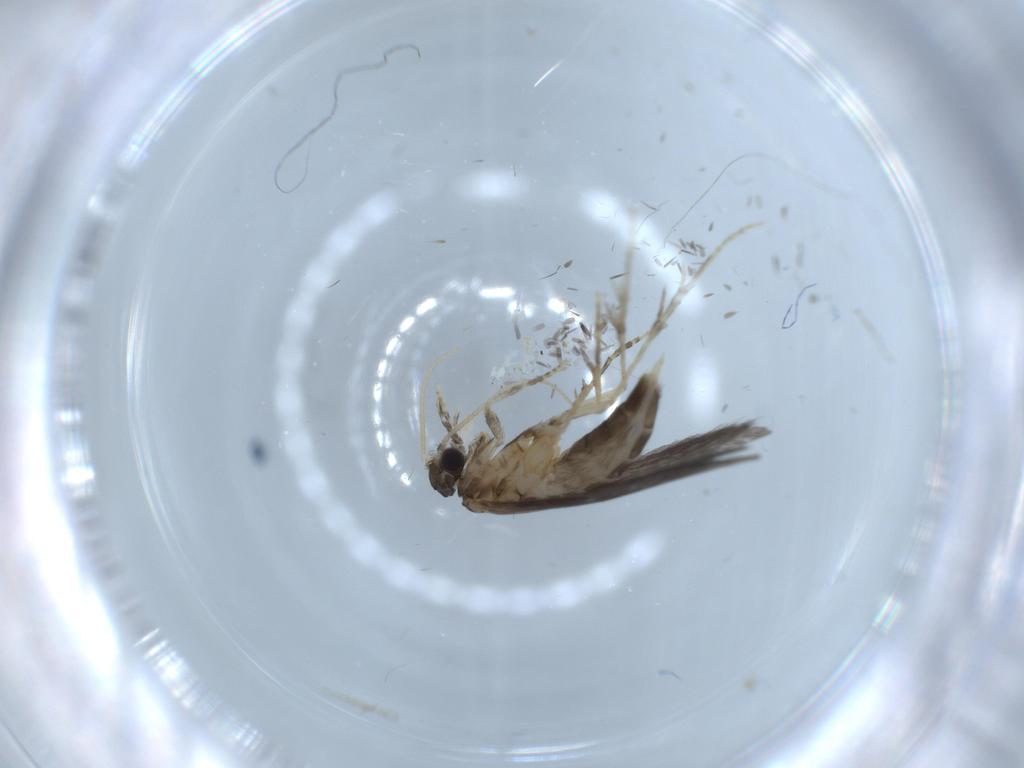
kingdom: Animalia
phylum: Arthropoda
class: Insecta
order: Trichoptera
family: Hydroptilidae
